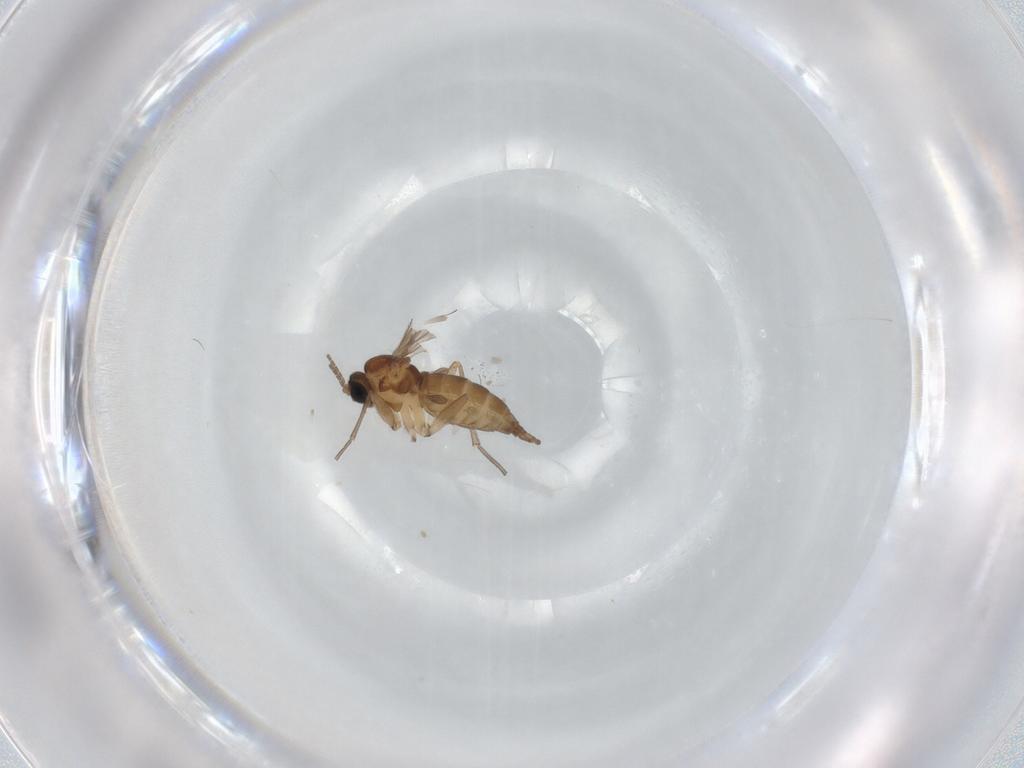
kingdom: Animalia
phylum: Arthropoda
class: Insecta
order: Diptera
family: Sciaridae
